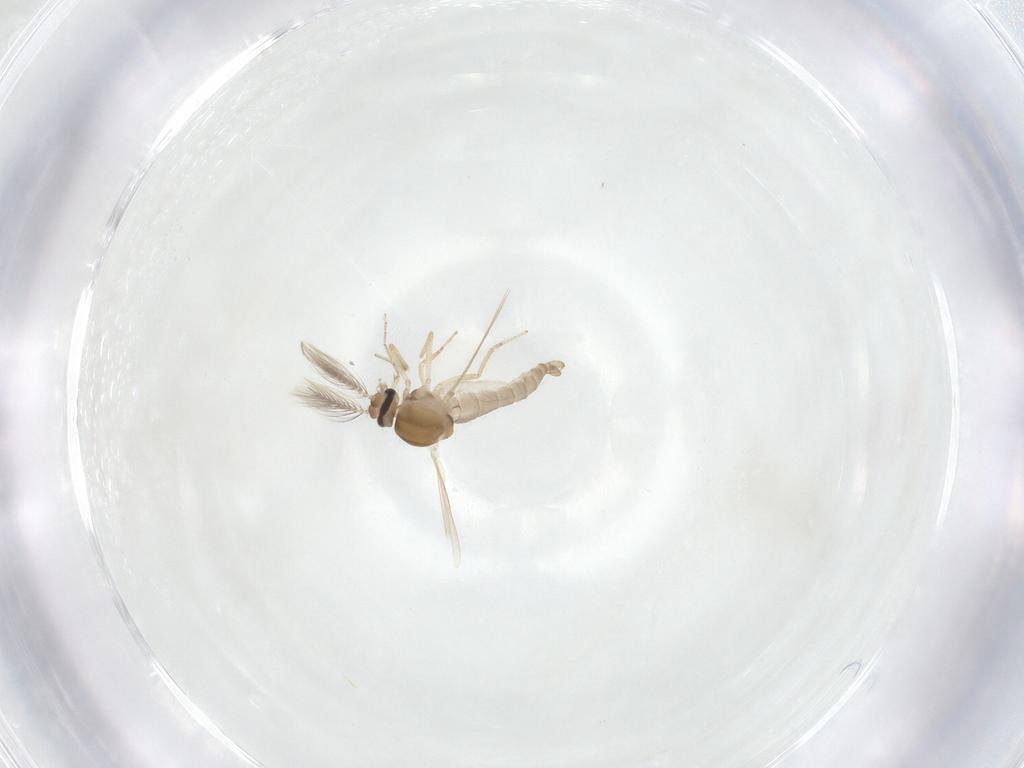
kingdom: Animalia
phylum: Arthropoda
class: Insecta
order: Diptera
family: Ceratopogonidae
